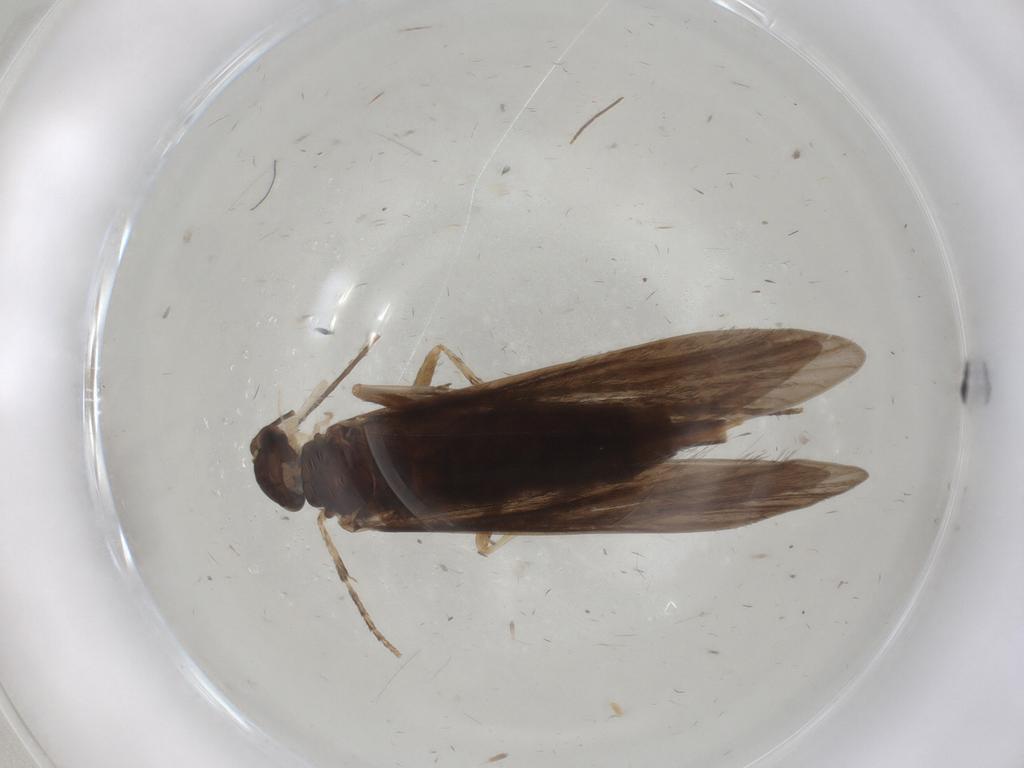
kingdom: Animalia
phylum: Arthropoda
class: Insecta
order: Trichoptera
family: Xiphocentronidae
